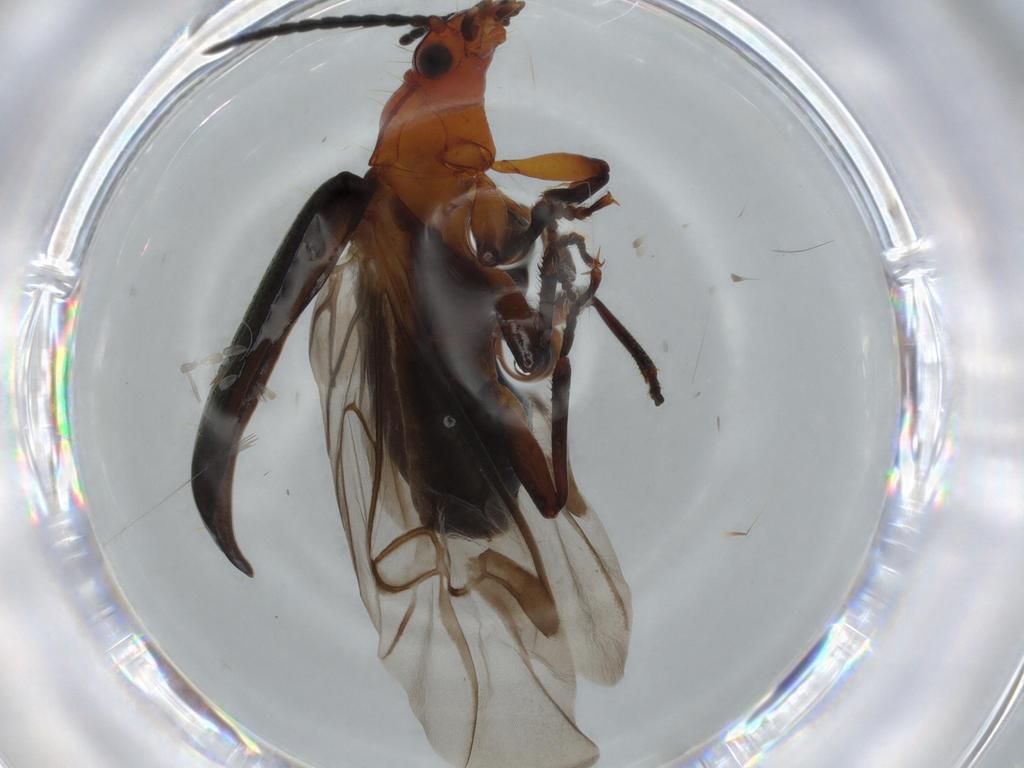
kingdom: Animalia
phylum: Arthropoda
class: Insecta
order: Coleoptera
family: Carabidae
